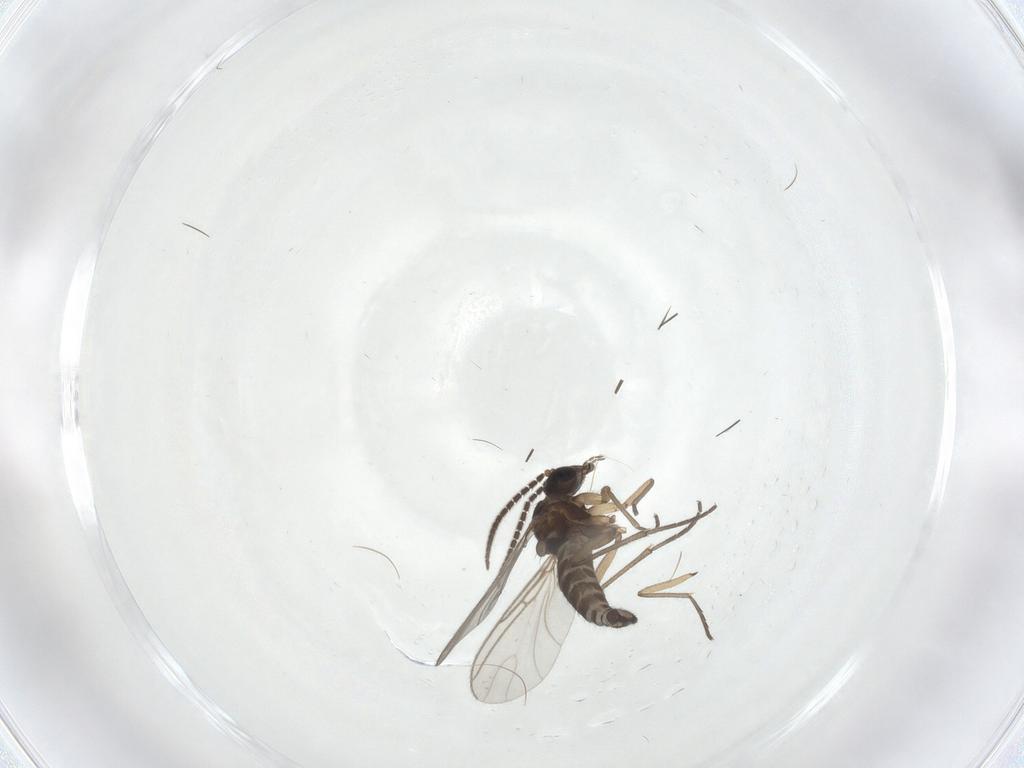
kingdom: Animalia
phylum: Arthropoda
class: Insecta
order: Diptera
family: Sciaridae
